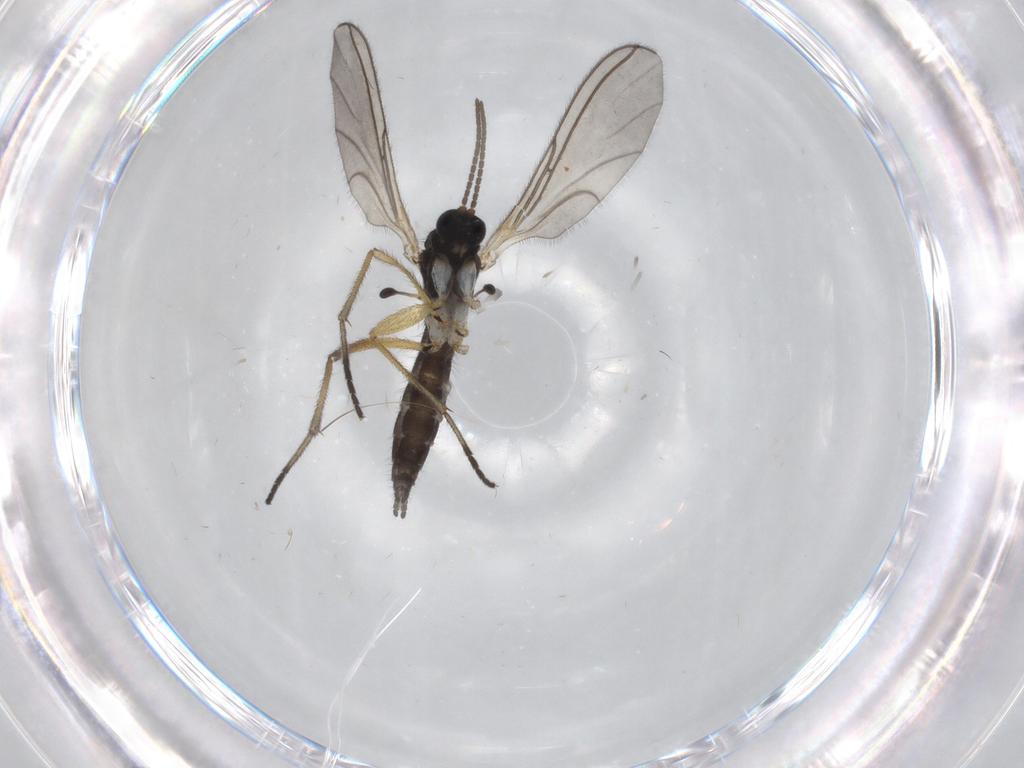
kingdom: Animalia
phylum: Arthropoda
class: Insecta
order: Diptera
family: Sciaridae
